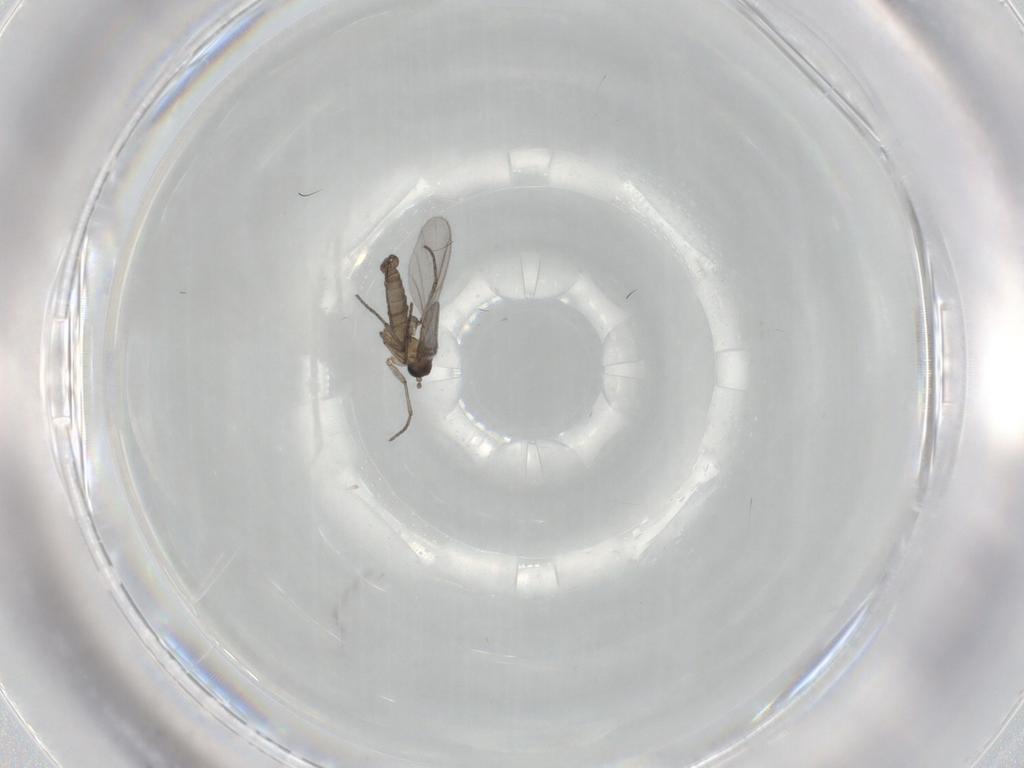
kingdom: Animalia
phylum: Arthropoda
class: Insecta
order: Diptera
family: Sciaridae
